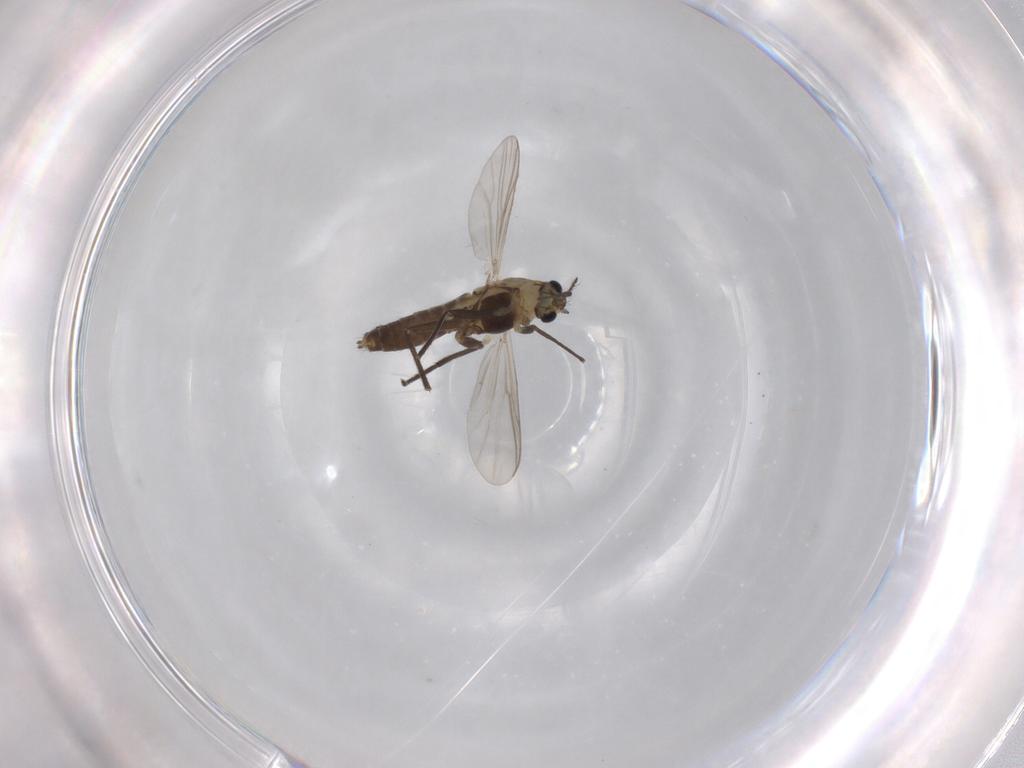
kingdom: Animalia
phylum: Arthropoda
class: Insecta
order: Diptera
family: Chironomidae
